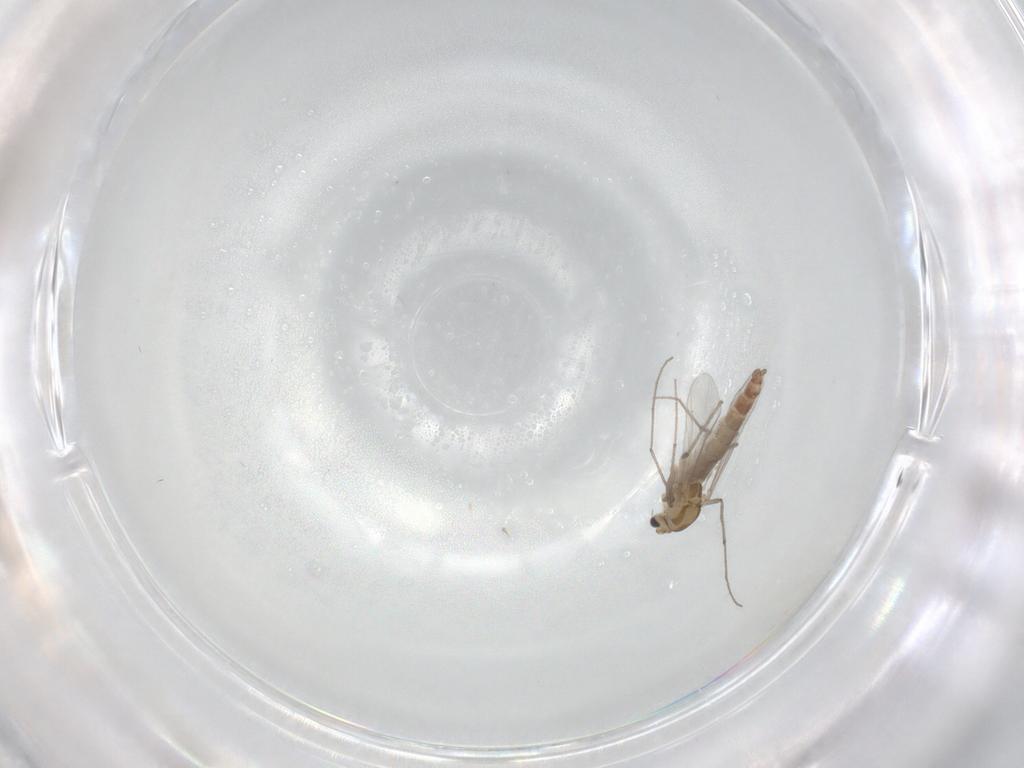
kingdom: Animalia
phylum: Arthropoda
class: Insecta
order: Diptera
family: Chironomidae
